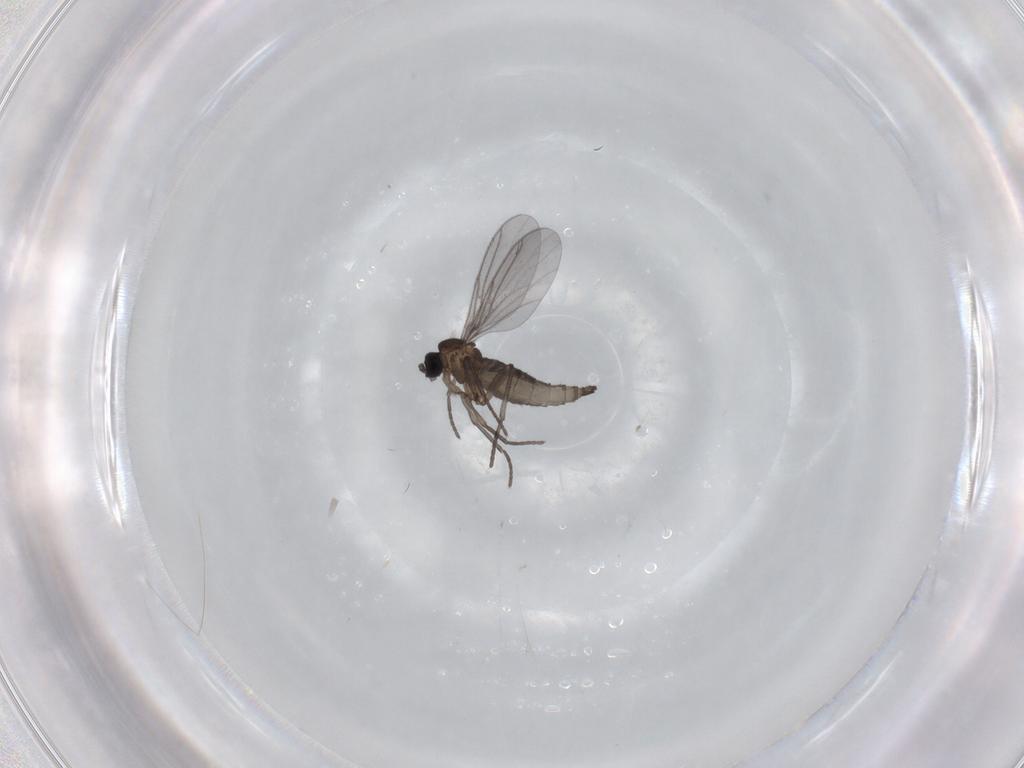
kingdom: Animalia
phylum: Arthropoda
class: Insecta
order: Diptera
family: Sciaridae
